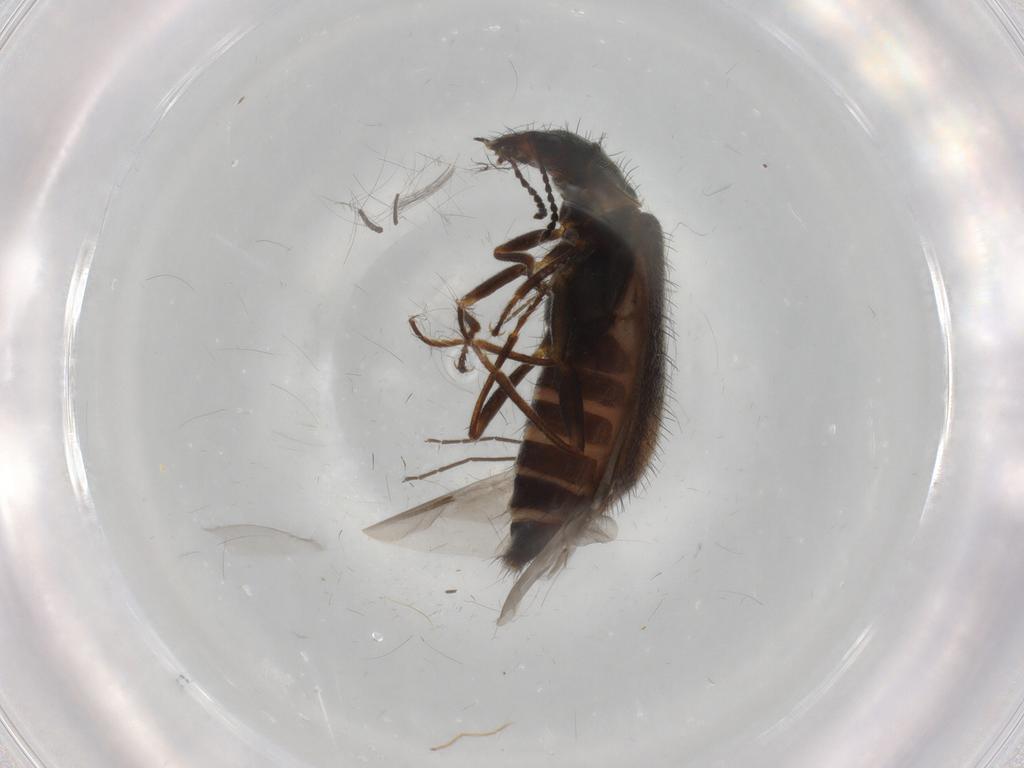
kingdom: Animalia
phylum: Arthropoda
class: Insecta
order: Coleoptera
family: Melyridae
